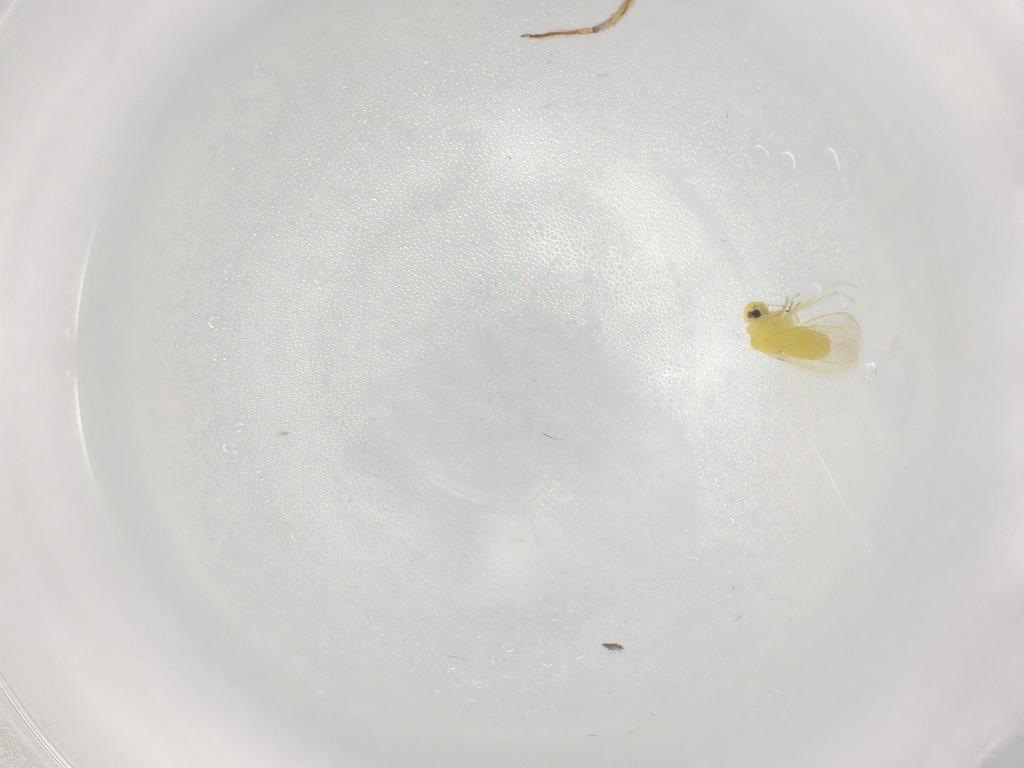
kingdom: Animalia
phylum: Arthropoda
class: Insecta
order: Hemiptera
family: Aleyrodidae
